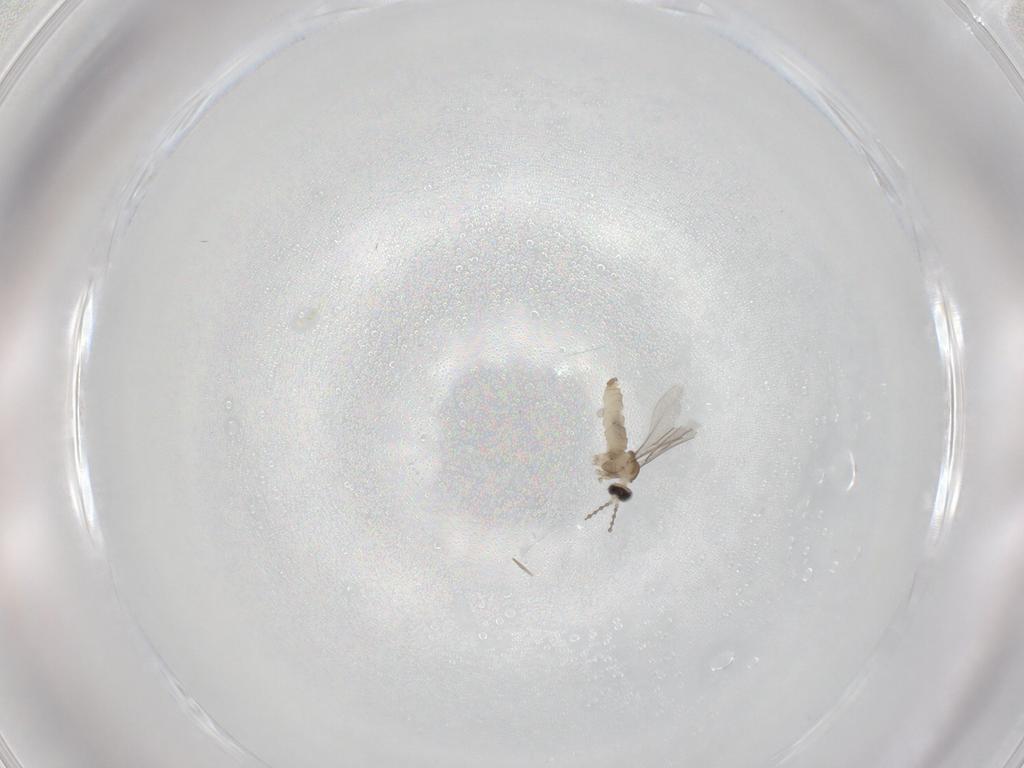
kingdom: Animalia
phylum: Arthropoda
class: Insecta
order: Diptera
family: Cecidomyiidae
